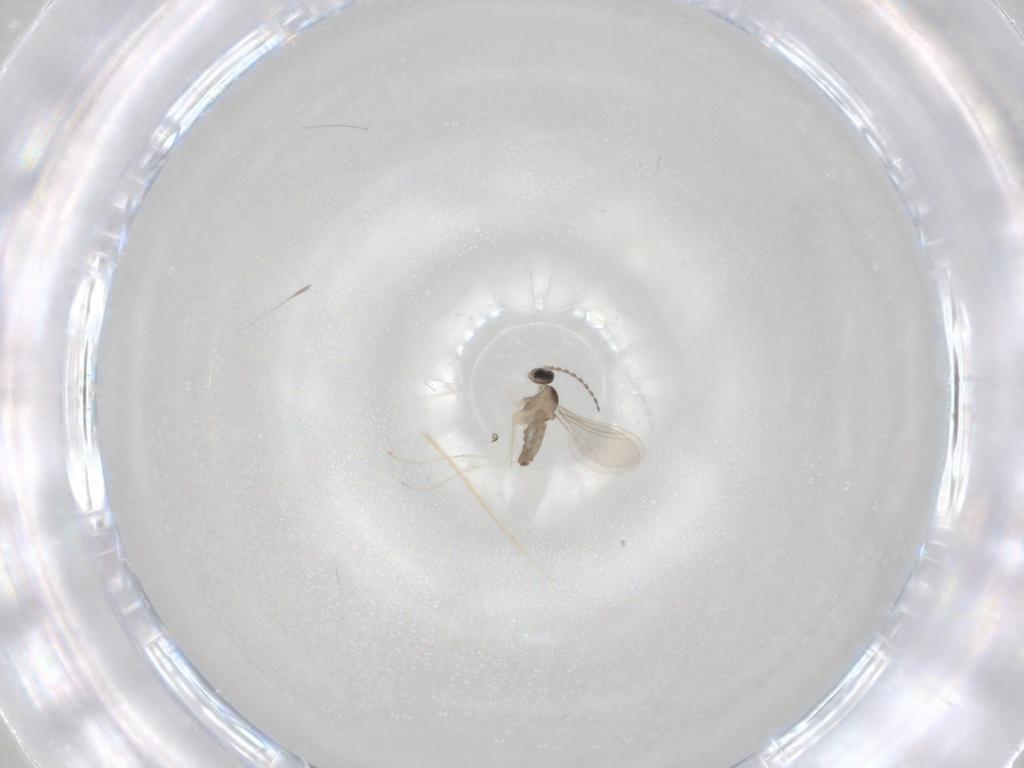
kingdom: Animalia
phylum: Arthropoda
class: Insecta
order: Diptera
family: Cecidomyiidae
